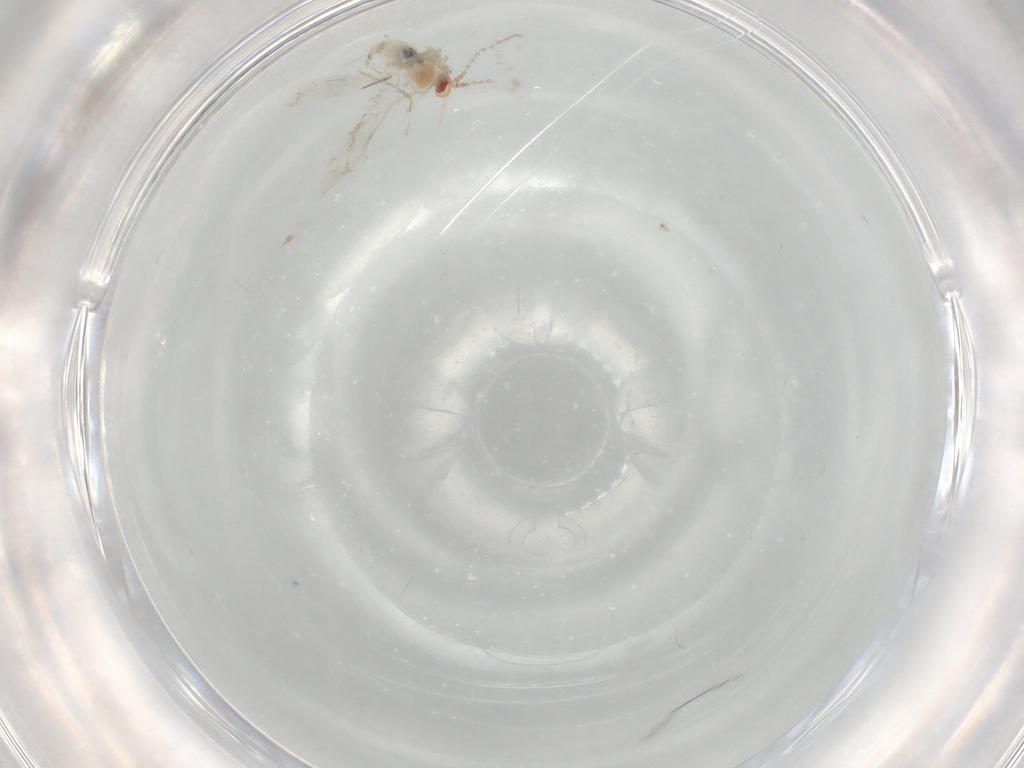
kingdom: Animalia
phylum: Arthropoda
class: Insecta
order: Diptera
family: Cecidomyiidae
